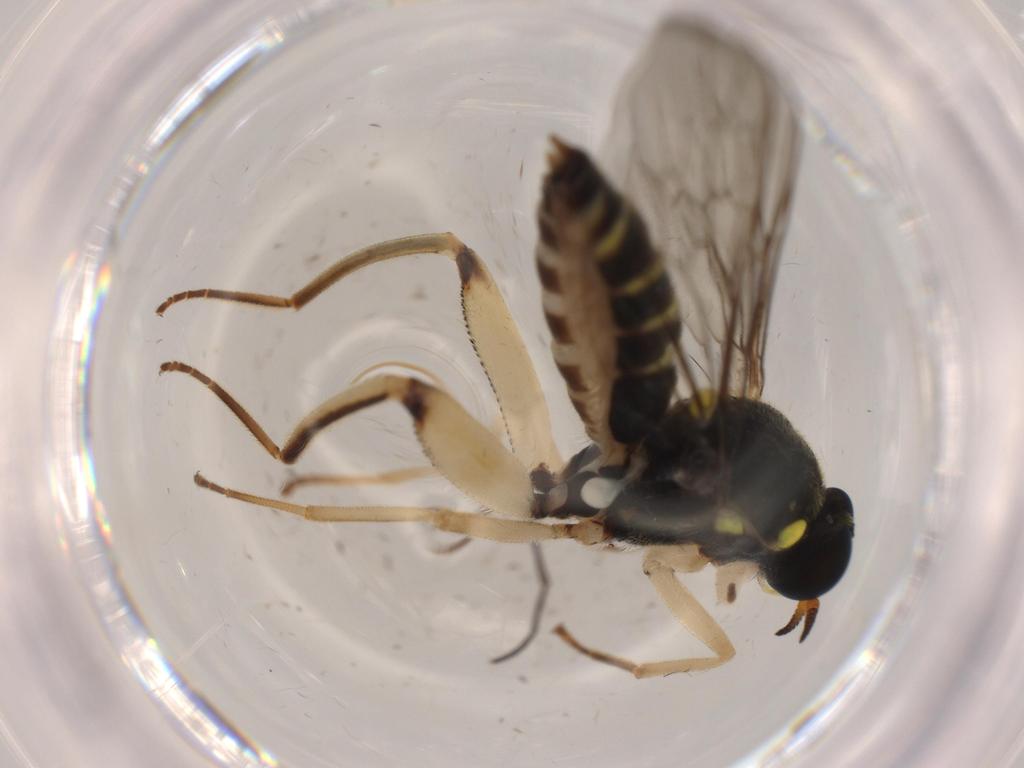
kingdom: Animalia
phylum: Arthropoda
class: Insecta
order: Diptera
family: Chironomidae
